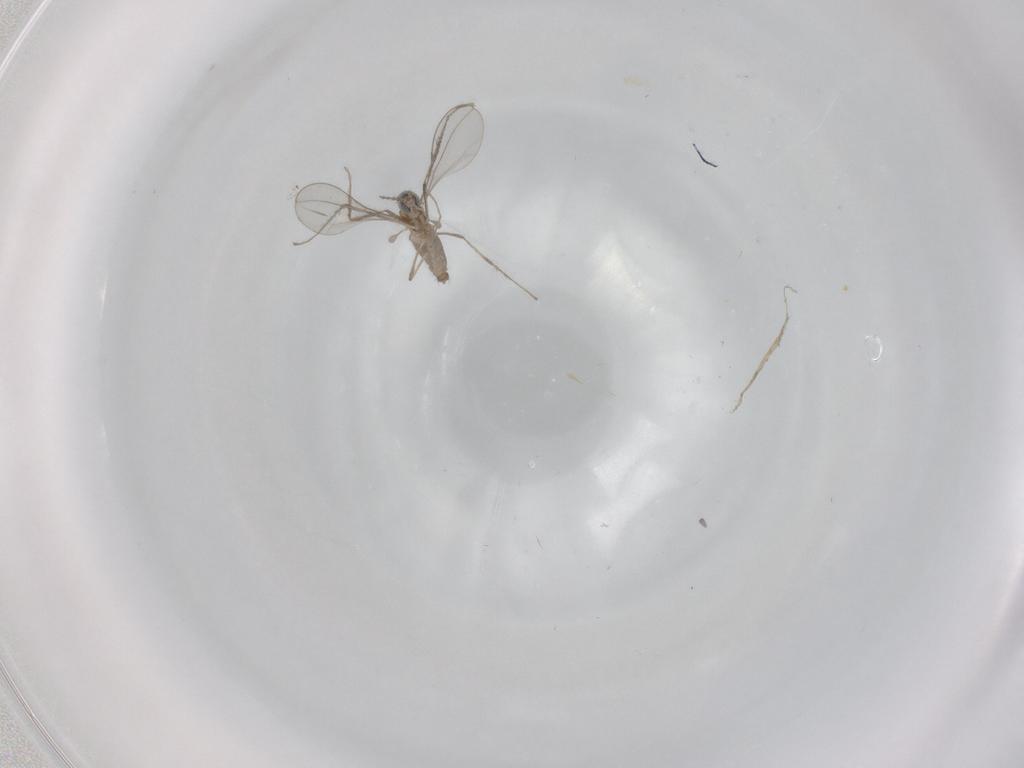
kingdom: Animalia
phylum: Arthropoda
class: Insecta
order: Diptera
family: Cecidomyiidae
